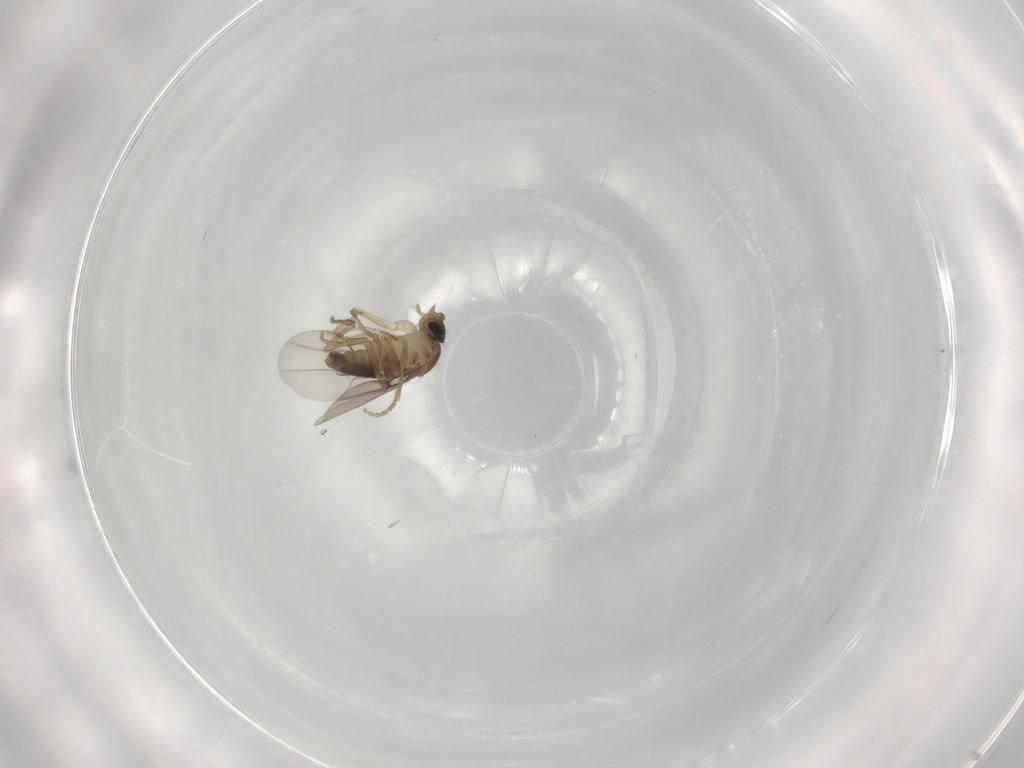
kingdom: Animalia
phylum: Arthropoda
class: Insecta
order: Diptera
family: Phoridae
